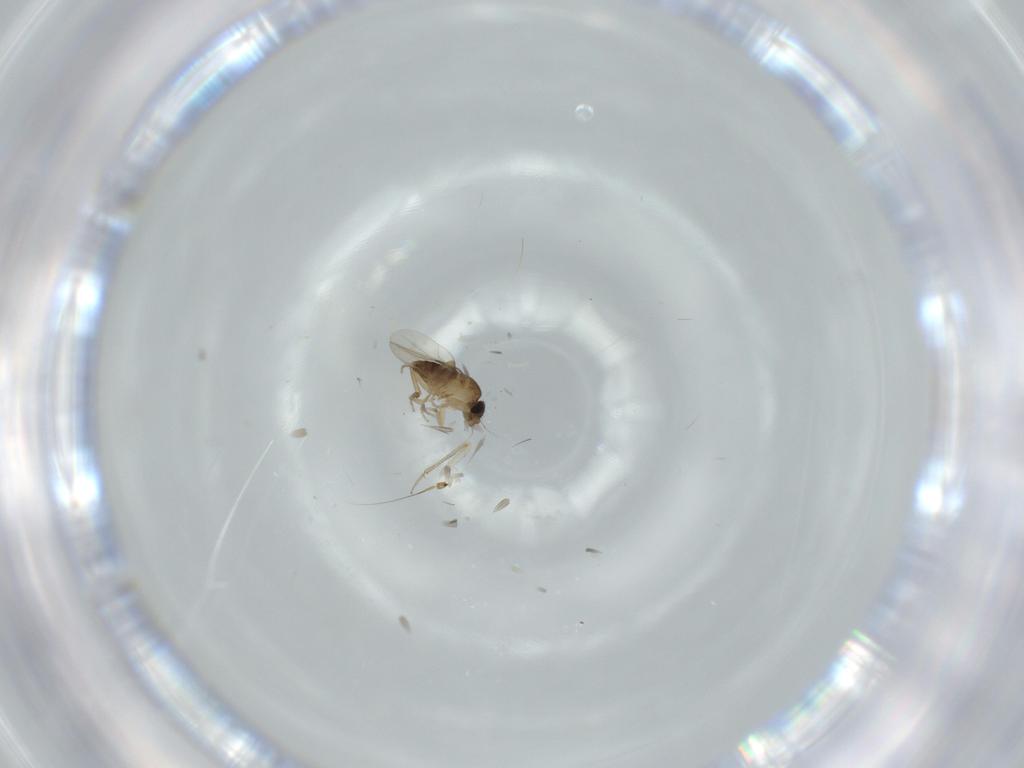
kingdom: Animalia
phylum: Arthropoda
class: Insecta
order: Diptera
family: Phoridae
